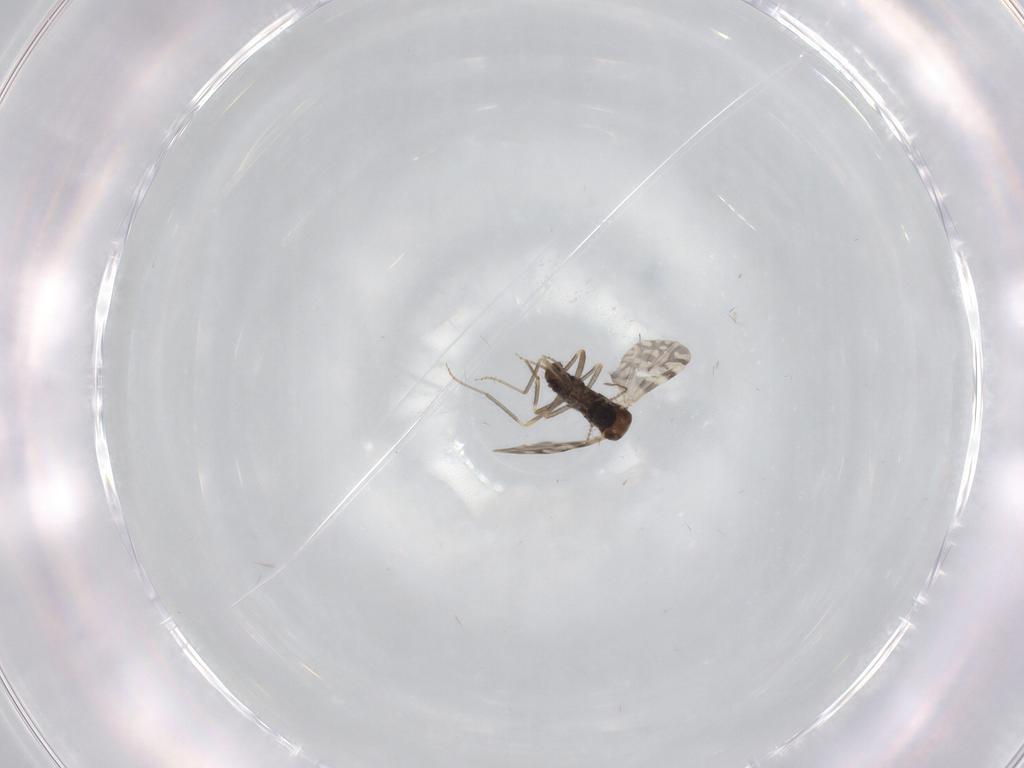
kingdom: Animalia
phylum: Arthropoda
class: Insecta
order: Diptera
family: Ceratopogonidae
